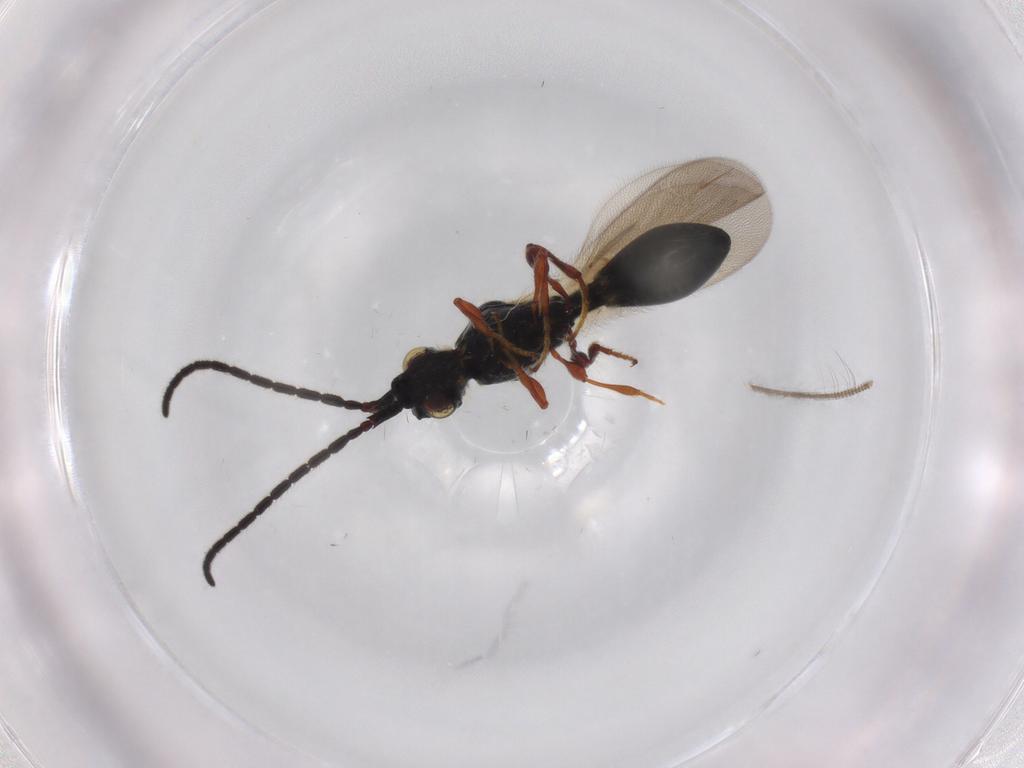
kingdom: Animalia
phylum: Arthropoda
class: Insecta
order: Hymenoptera
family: Diapriidae
